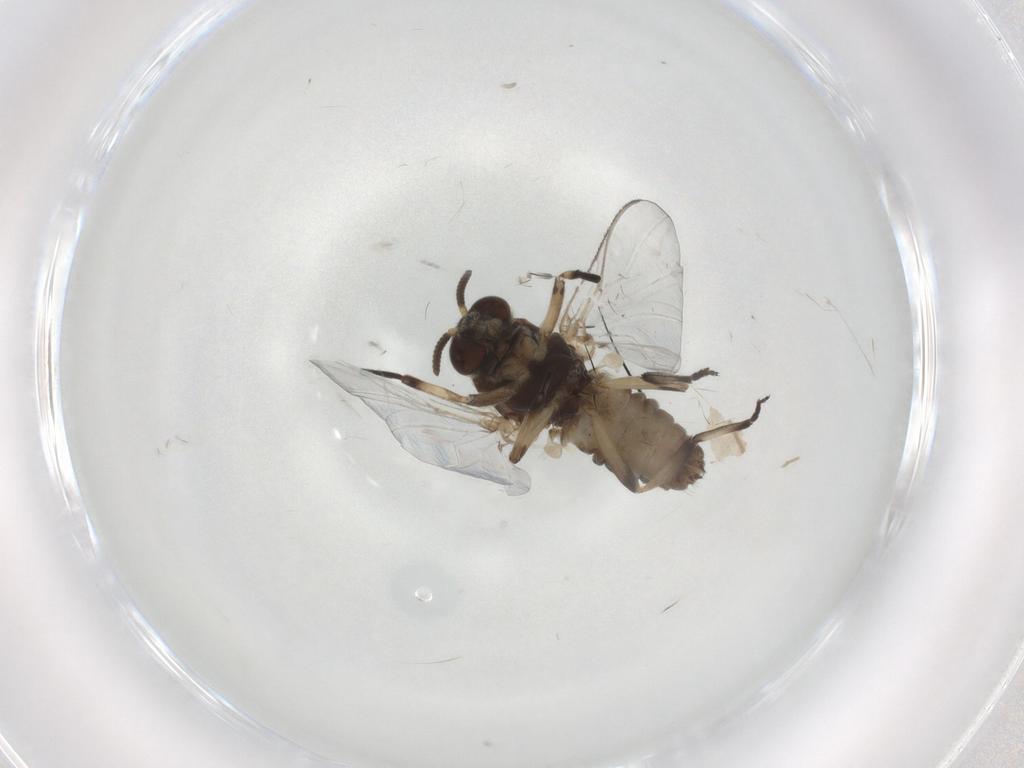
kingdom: Animalia
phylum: Arthropoda
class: Insecta
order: Diptera
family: Simuliidae
